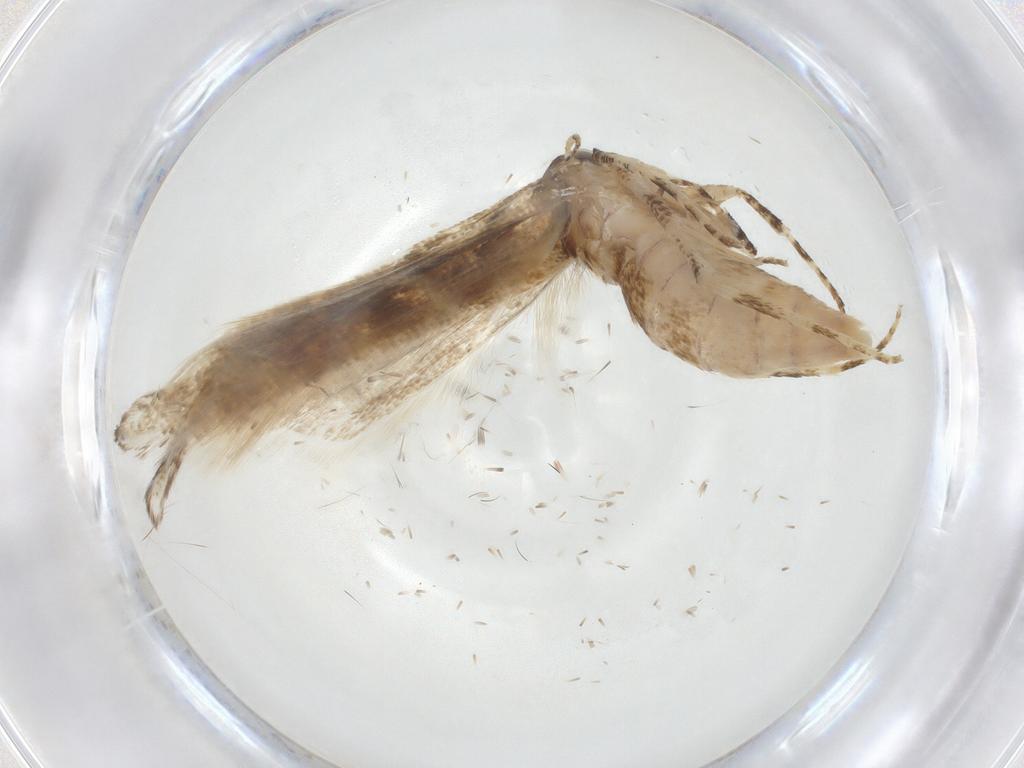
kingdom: Animalia
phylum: Arthropoda
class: Insecta
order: Lepidoptera
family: Gelechiidae
